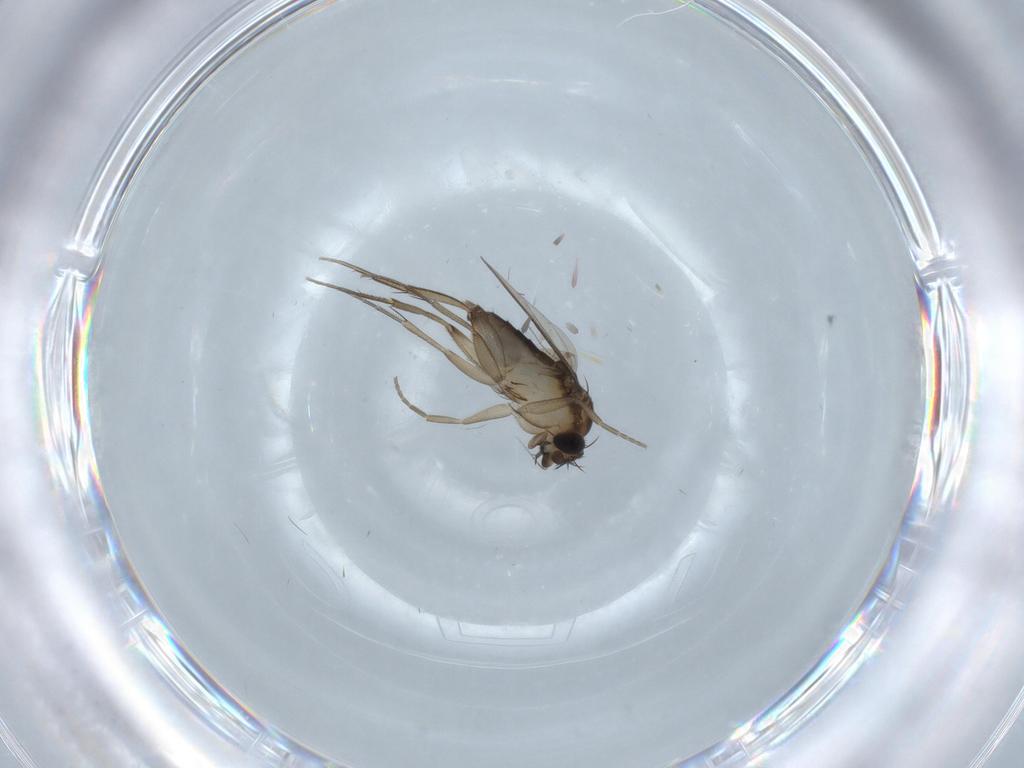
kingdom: Animalia
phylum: Arthropoda
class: Insecta
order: Diptera
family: Phoridae
